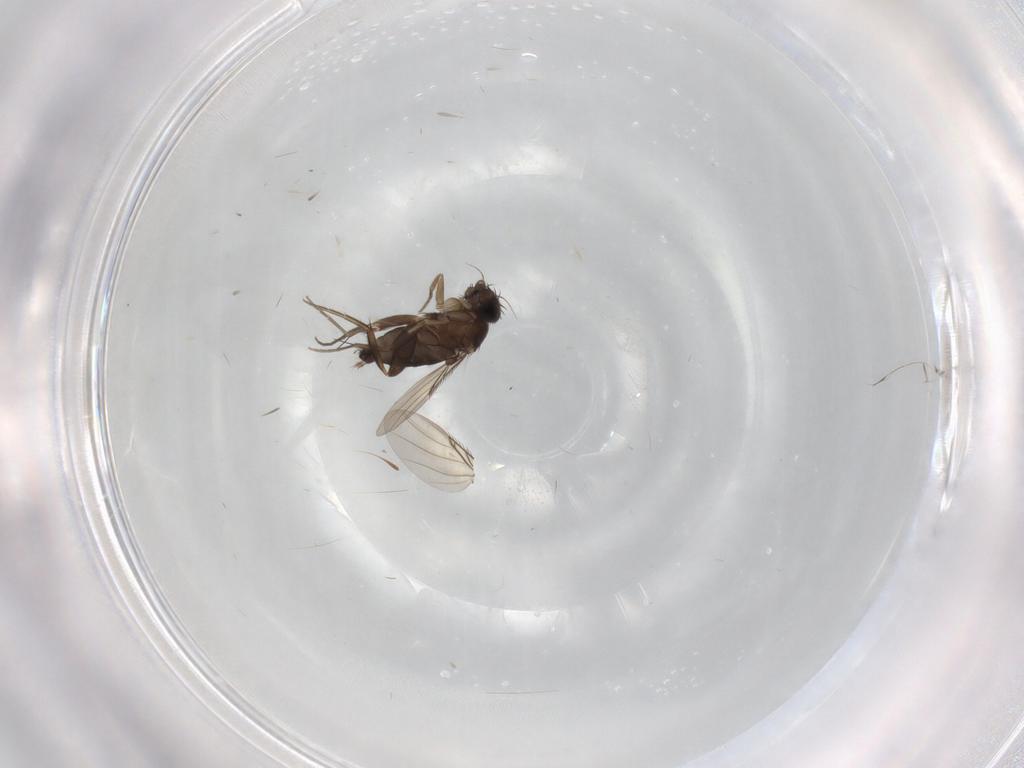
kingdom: Animalia
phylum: Arthropoda
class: Insecta
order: Diptera
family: Phoridae
